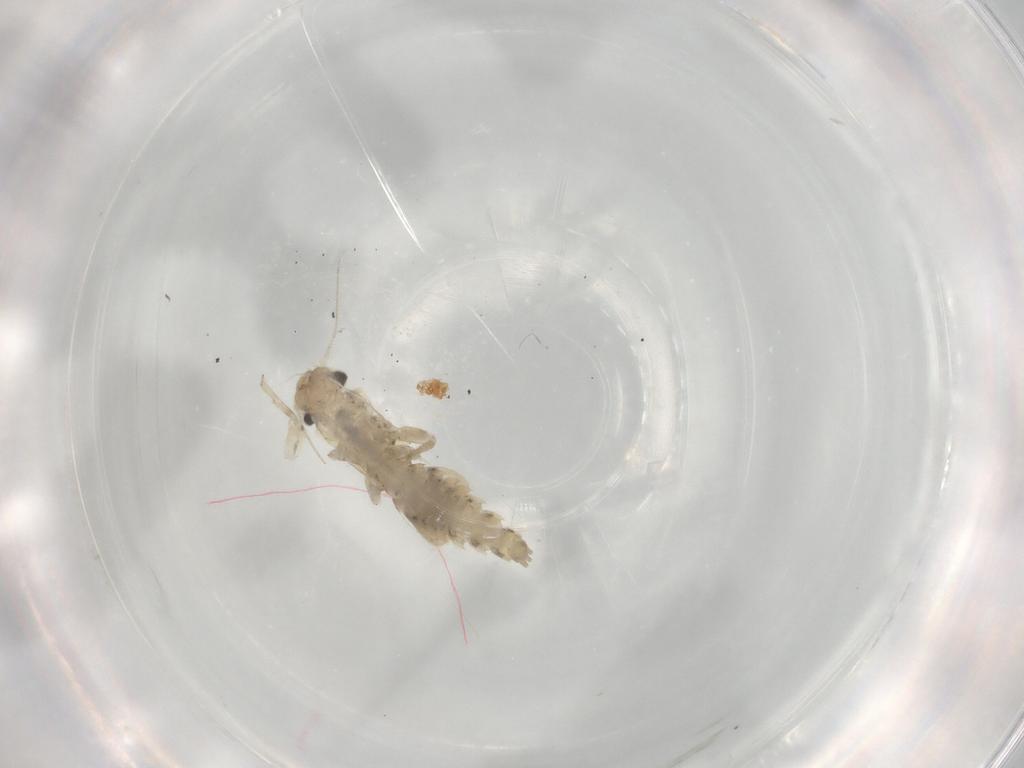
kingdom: Animalia
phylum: Arthropoda
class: Insecta
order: Ephemeroptera
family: Caenidae
